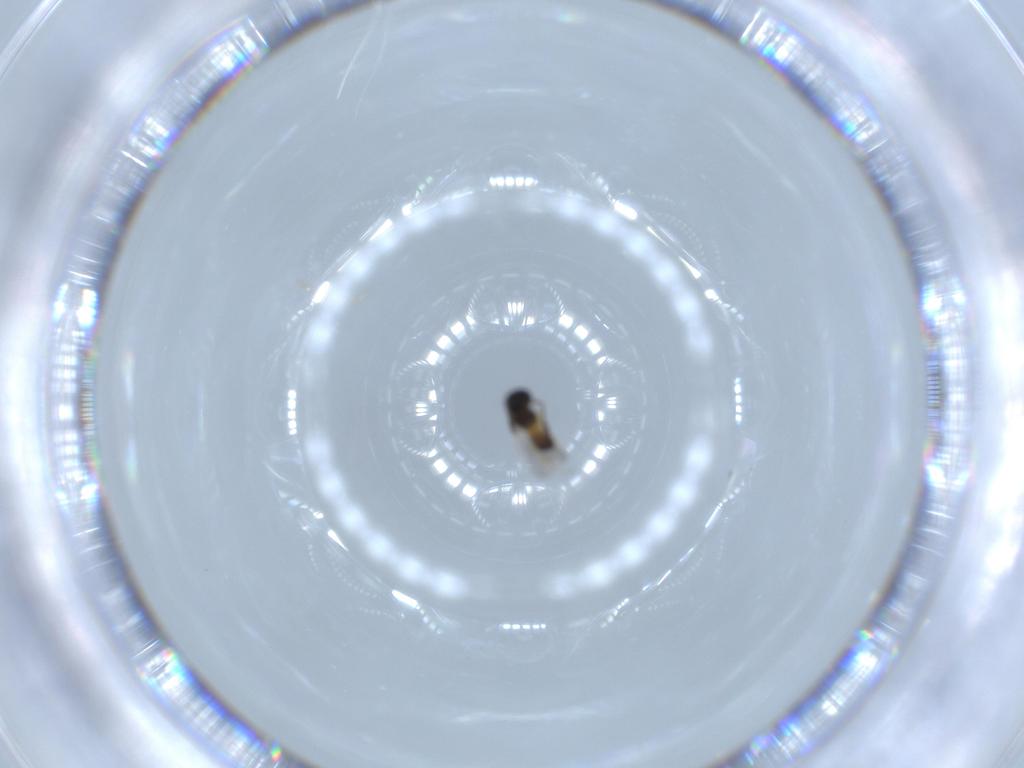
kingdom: Animalia
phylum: Arthropoda
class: Insecta
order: Hymenoptera
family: Scelionidae
